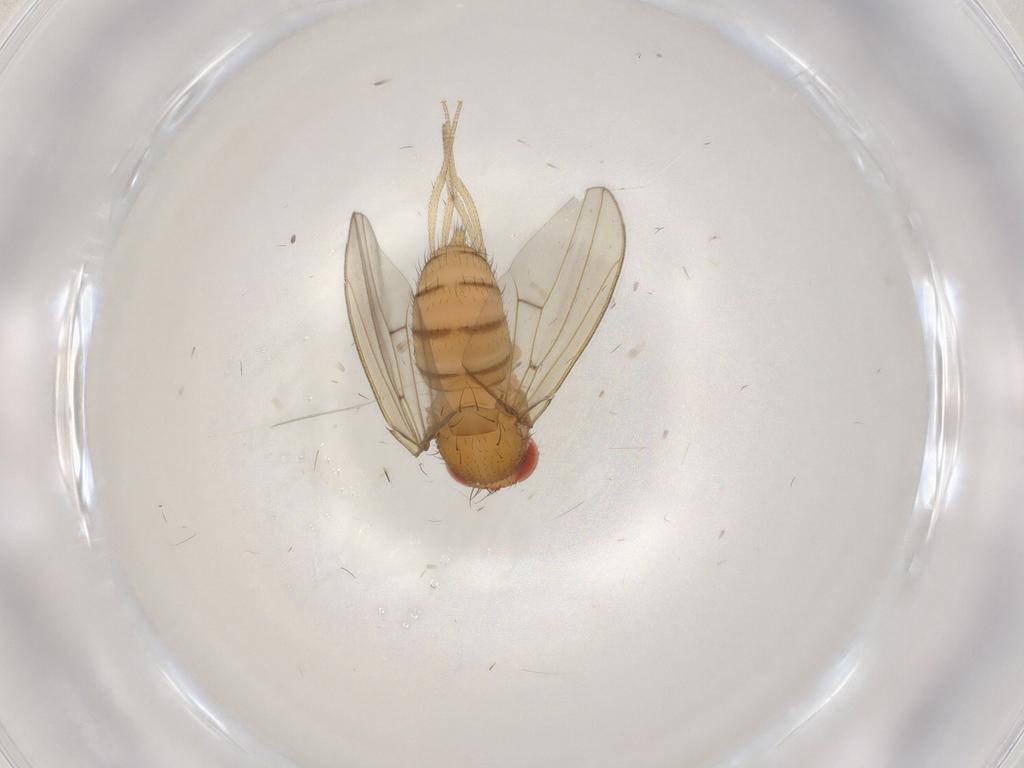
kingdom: Animalia
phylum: Arthropoda
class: Insecta
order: Diptera
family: Drosophilidae
